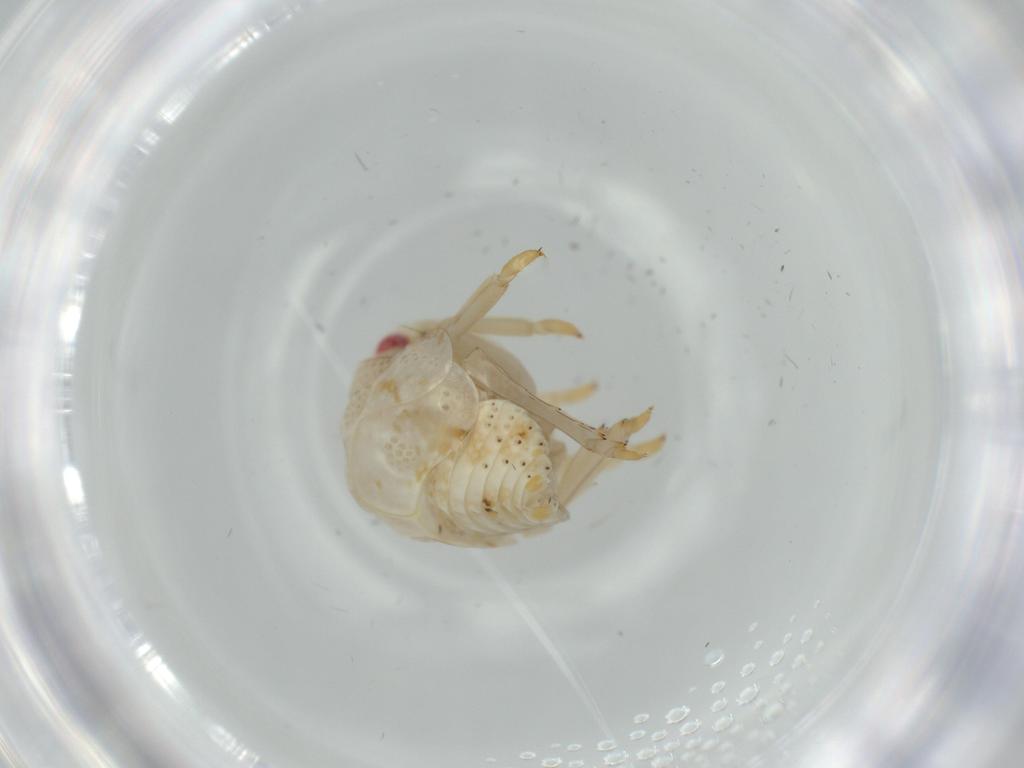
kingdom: Animalia
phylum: Arthropoda
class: Insecta
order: Hemiptera
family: Acanaloniidae
